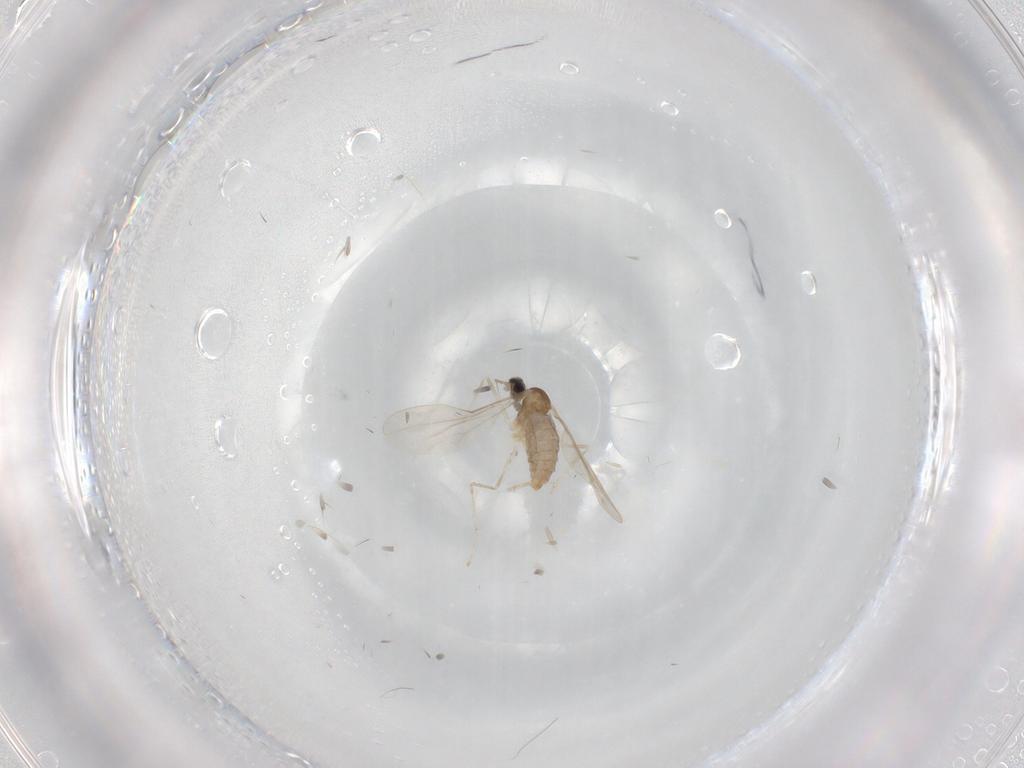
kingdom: Animalia
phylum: Arthropoda
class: Insecta
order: Diptera
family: Cecidomyiidae
